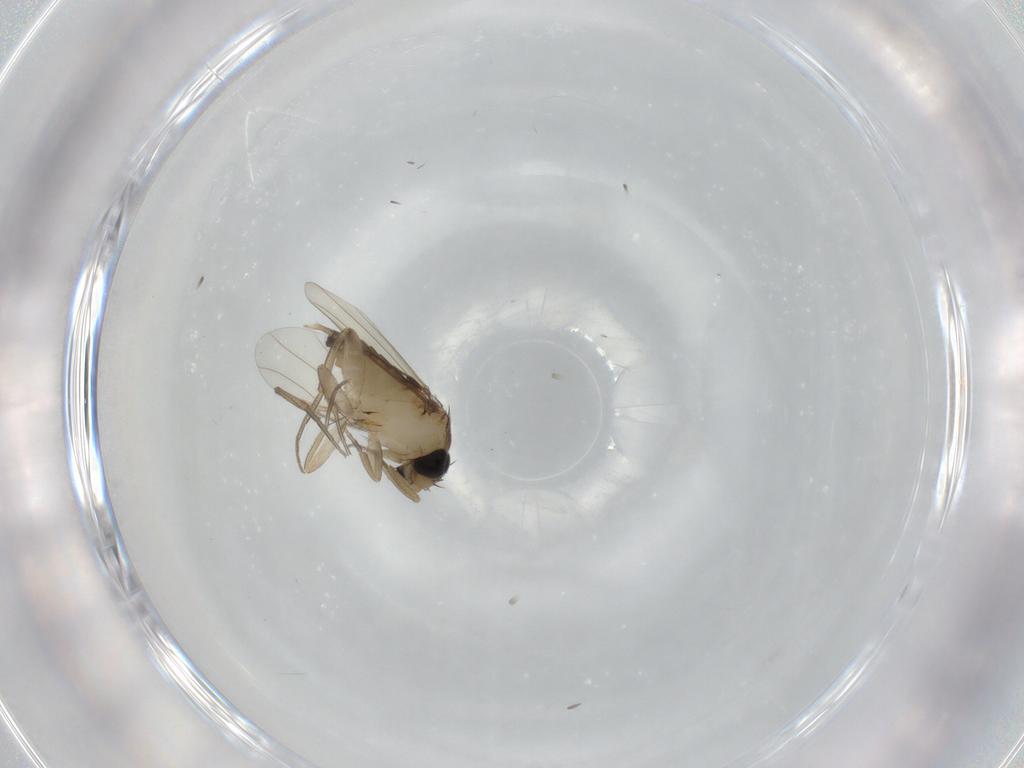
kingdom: Animalia
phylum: Arthropoda
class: Insecta
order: Diptera
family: Phoridae
